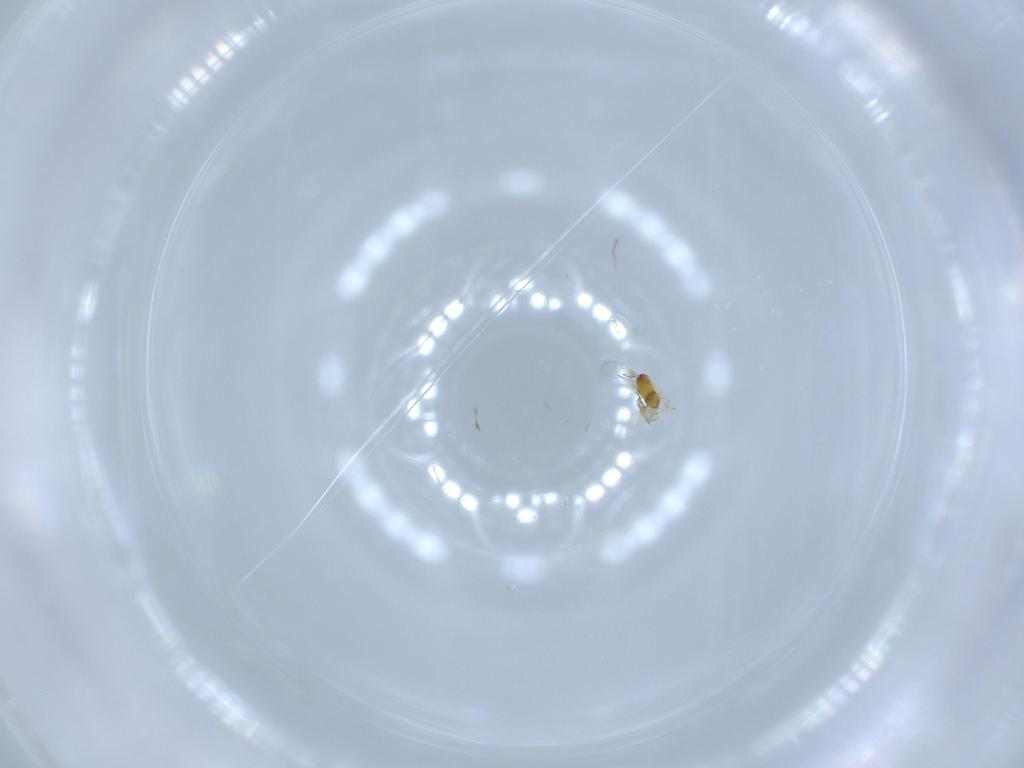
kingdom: Animalia
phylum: Arthropoda
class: Insecta
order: Hymenoptera
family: Trichogrammatidae
